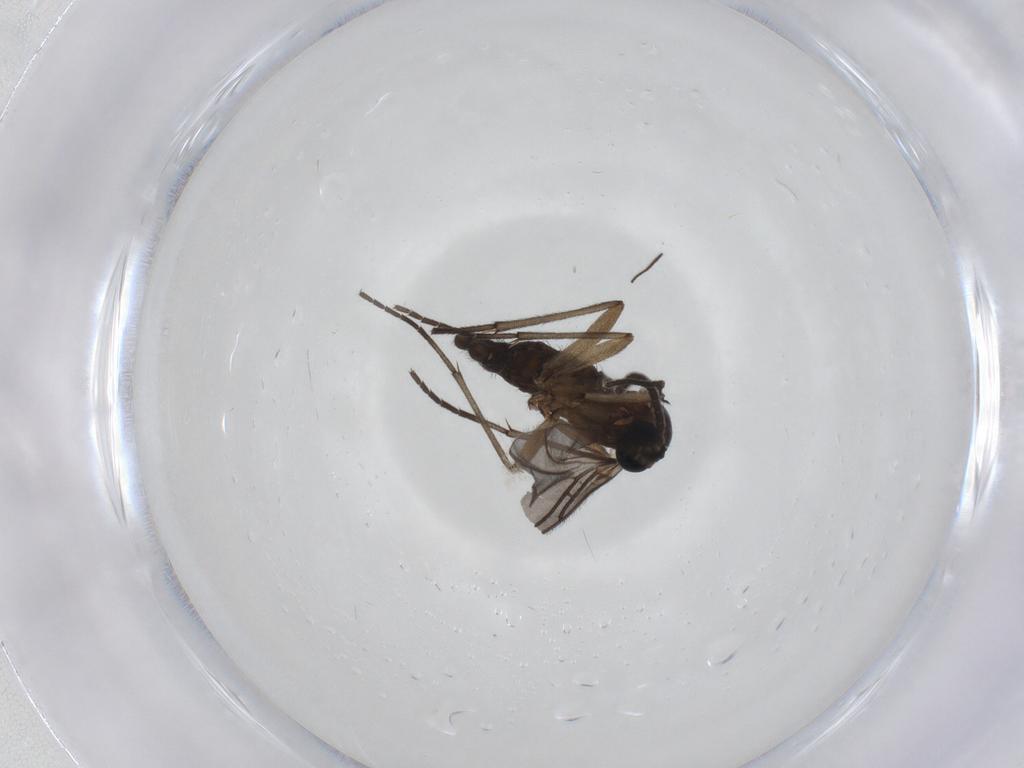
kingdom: Animalia
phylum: Arthropoda
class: Insecta
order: Diptera
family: Sciaridae
